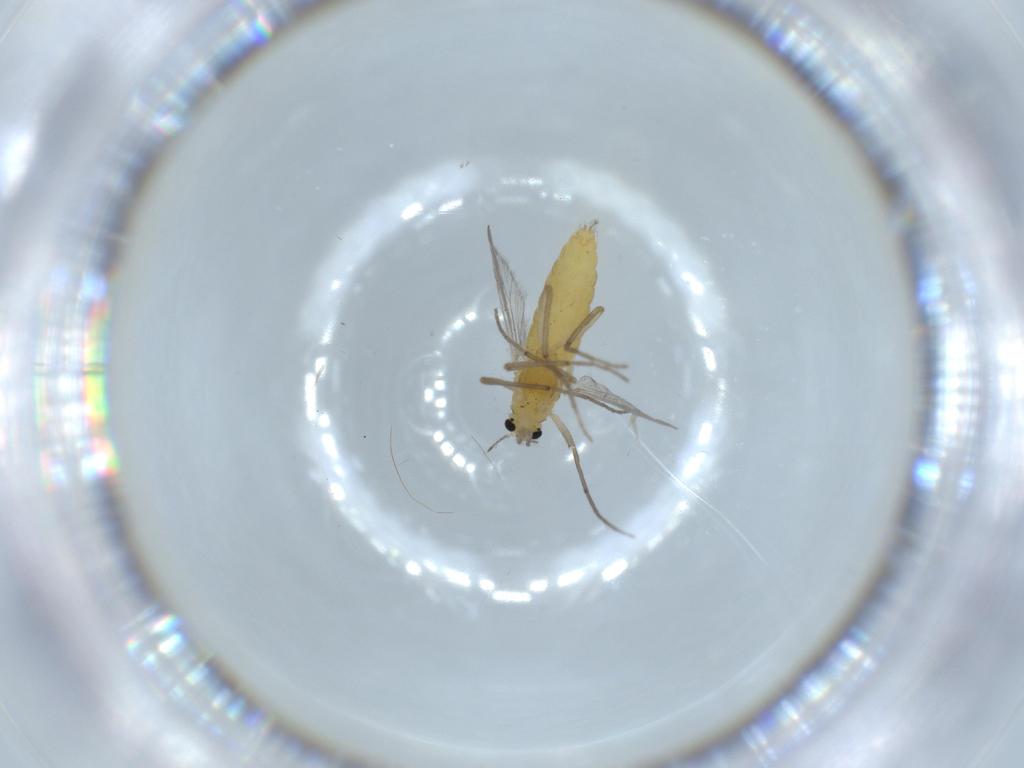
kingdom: Animalia
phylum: Arthropoda
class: Insecta
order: Diptera
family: Chironomidae
